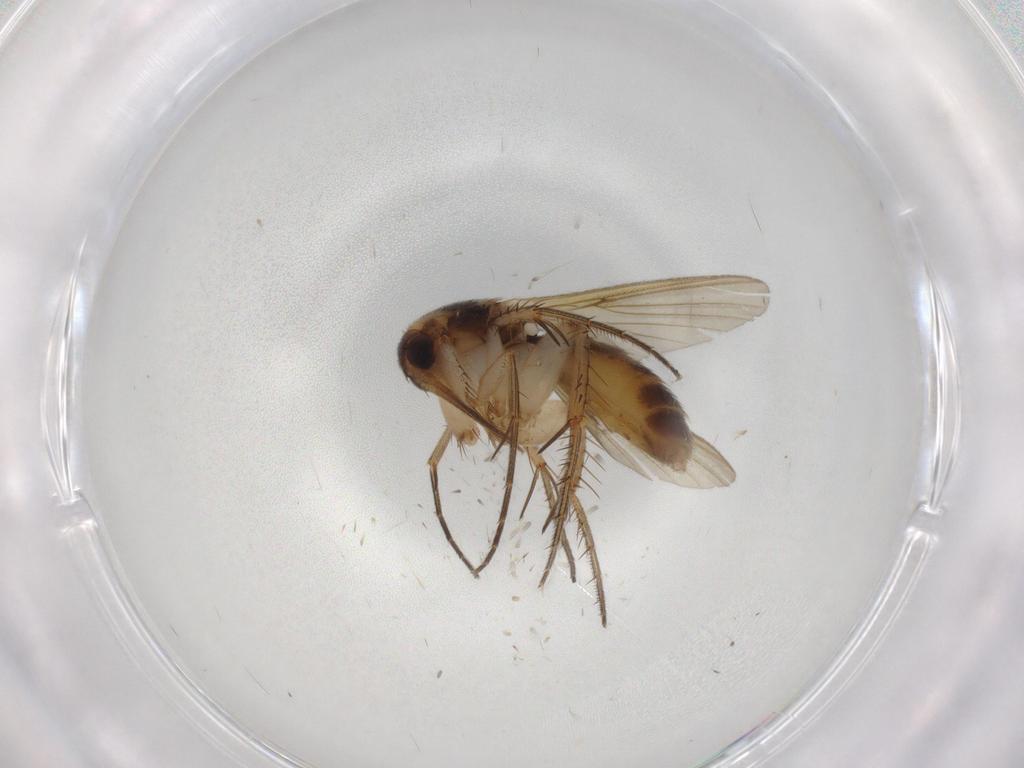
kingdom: Animalia
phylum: Arthropoda
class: Insecta
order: Diptera
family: Mycetophilidae
